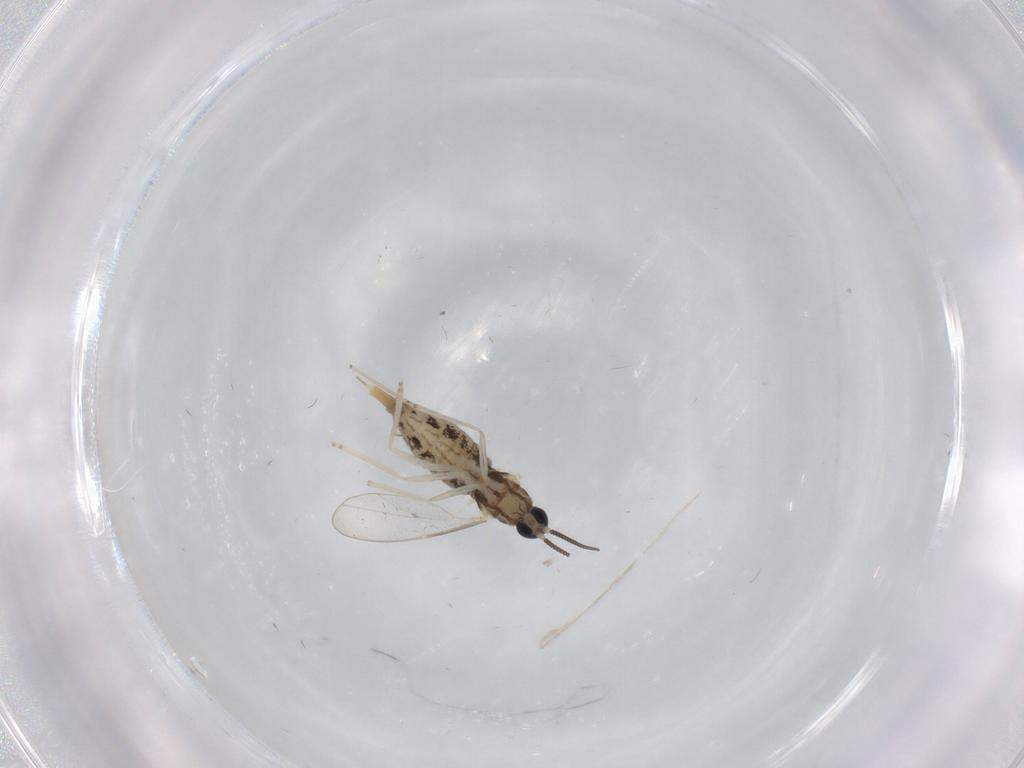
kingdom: Animalia
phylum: Arthropoda
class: Insecta
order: Diptera
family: Cecidomyiidae
